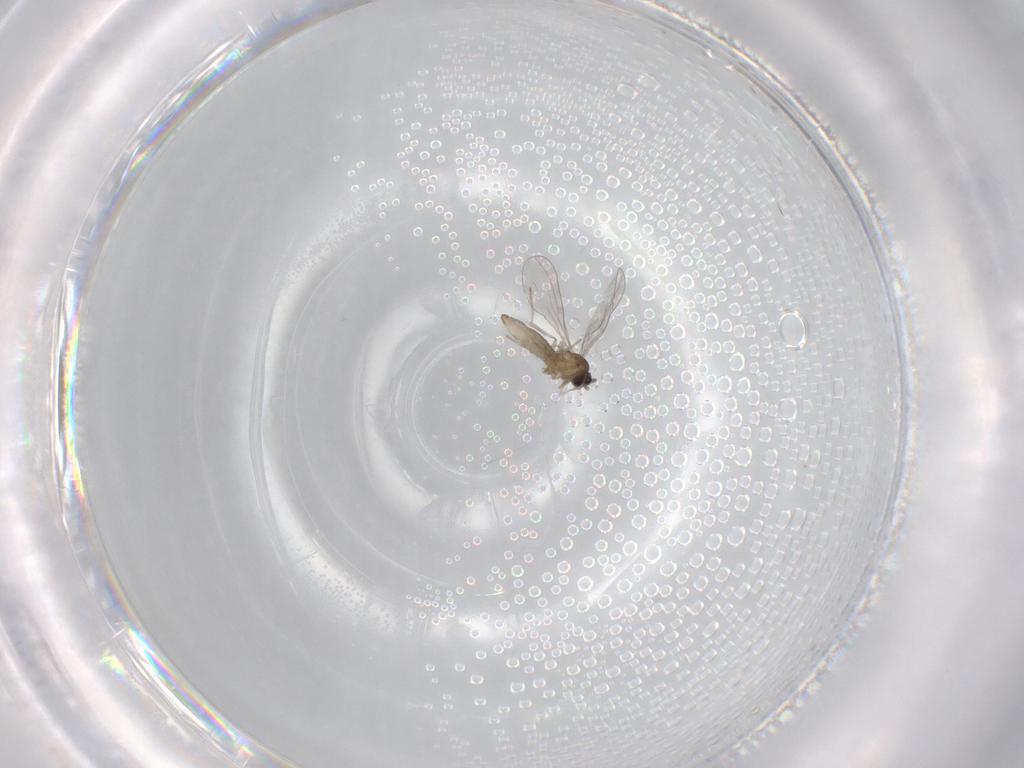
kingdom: Animalia
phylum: Arthropoda
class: Insecta
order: Diptera
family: Cecidomyiidae
